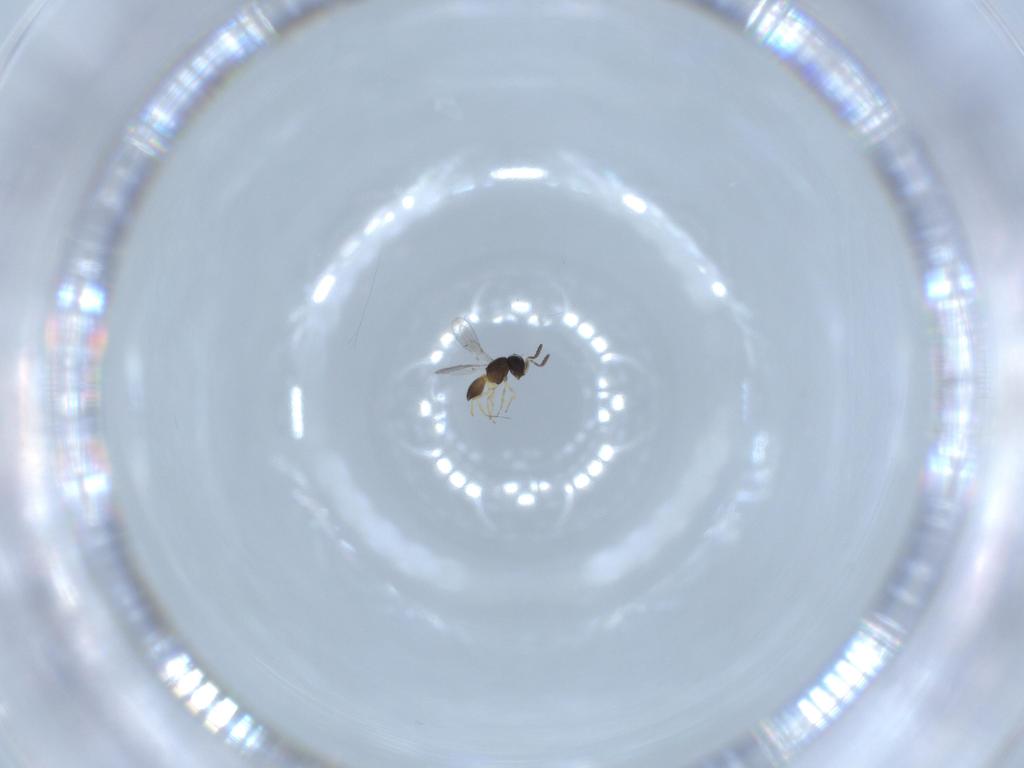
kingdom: Animalia
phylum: Arthropoda
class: Insecta
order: Hymenoptera
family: Scelionidae
